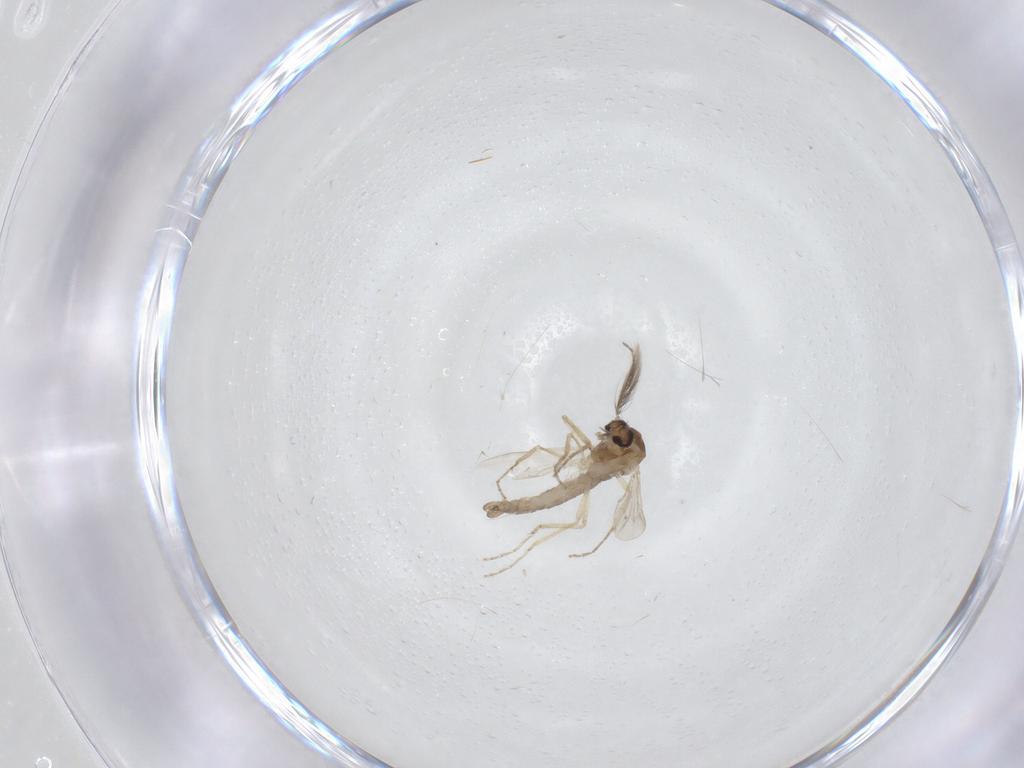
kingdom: Animalia
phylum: Arthropoda
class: Insecta
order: Diptera
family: Ceratopogonidae
